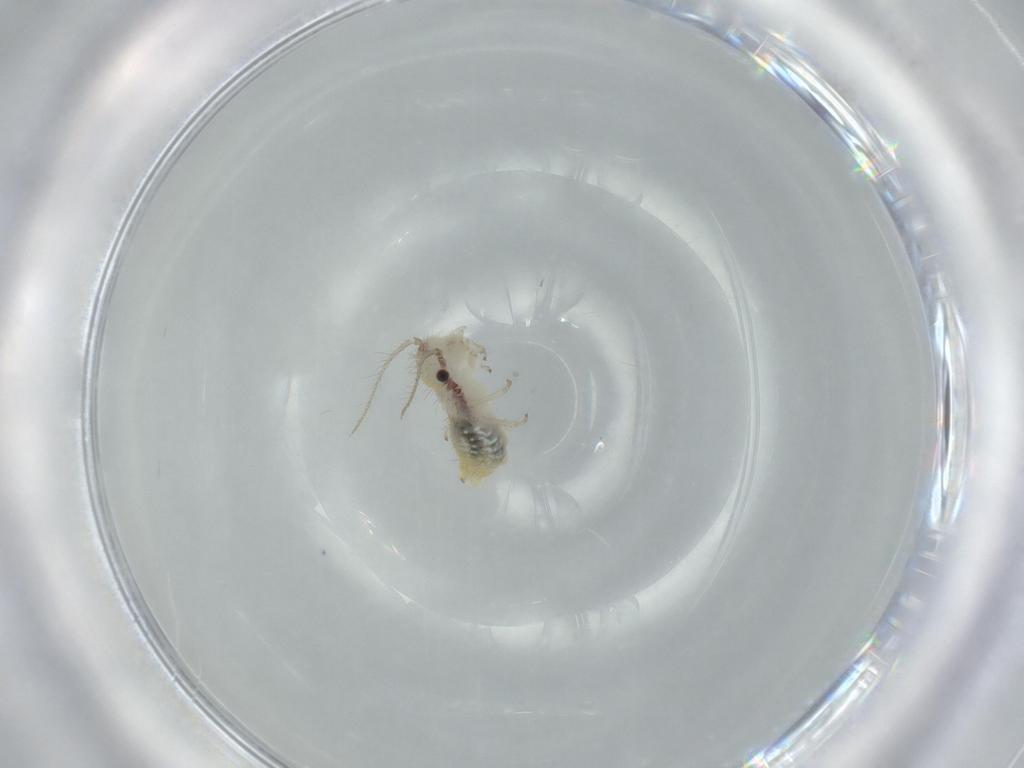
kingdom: Animalia
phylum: Arthropoda
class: Insecta
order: Psocodea
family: Pseudocaeciliidae
